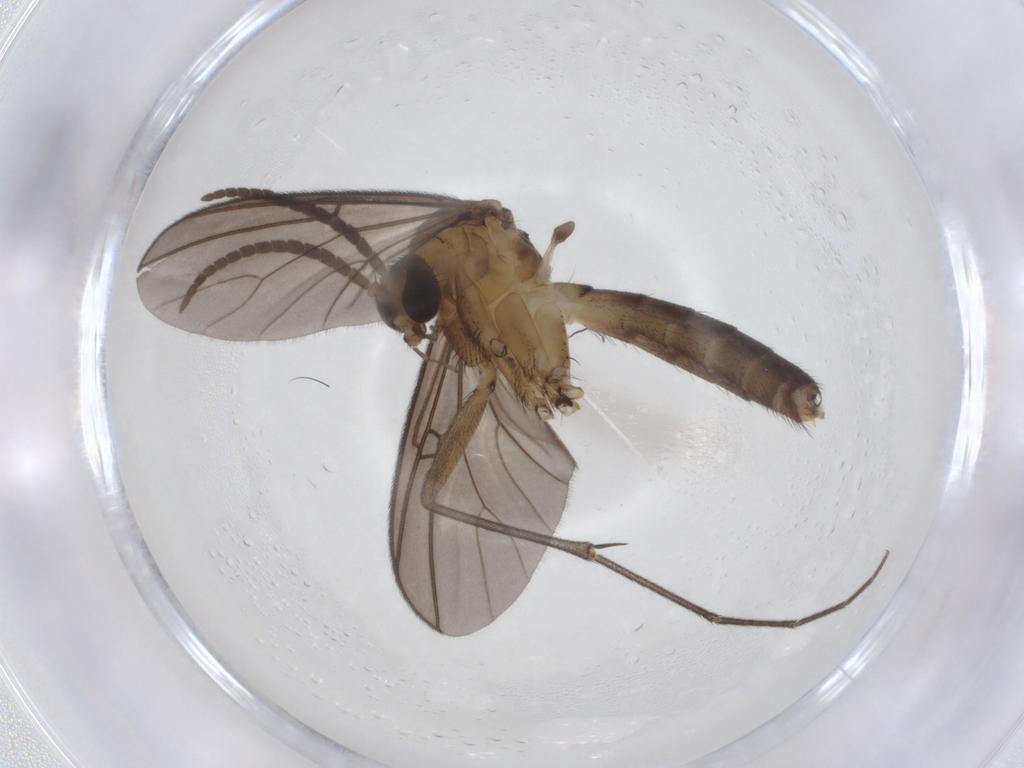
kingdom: Animalia
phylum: Arthropoda
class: Insecta
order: Diptera
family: Mycetophilidae
